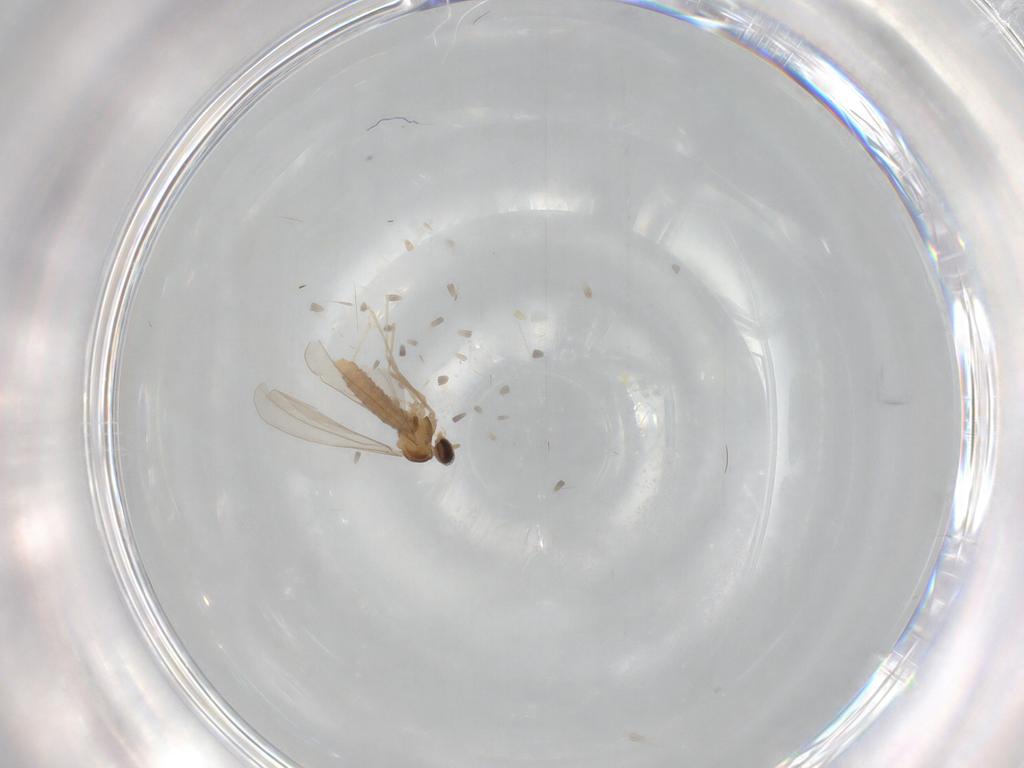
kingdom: Animalia
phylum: Arthropoda
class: Insecta
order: Diptera
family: Cecidomyiidae
